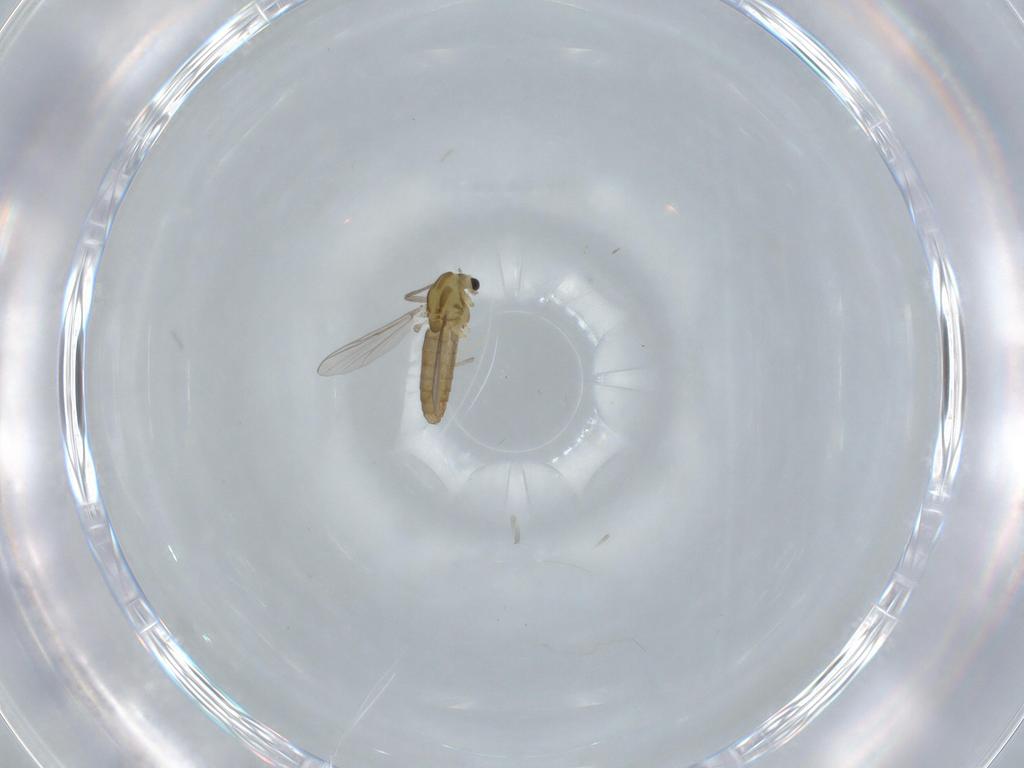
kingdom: Animalia
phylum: Arthropoda
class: Insecta
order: Diptera
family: Chironomidae
